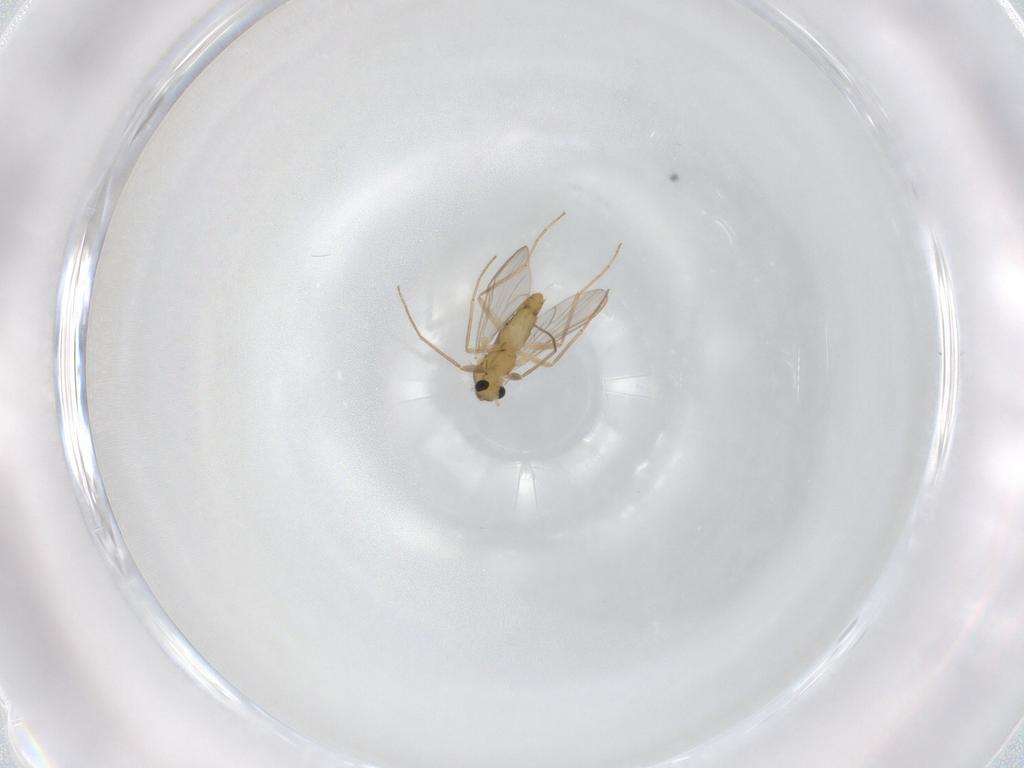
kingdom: Animalia
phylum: Arthropoda
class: Insecta
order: Diptera
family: Chironomidae
